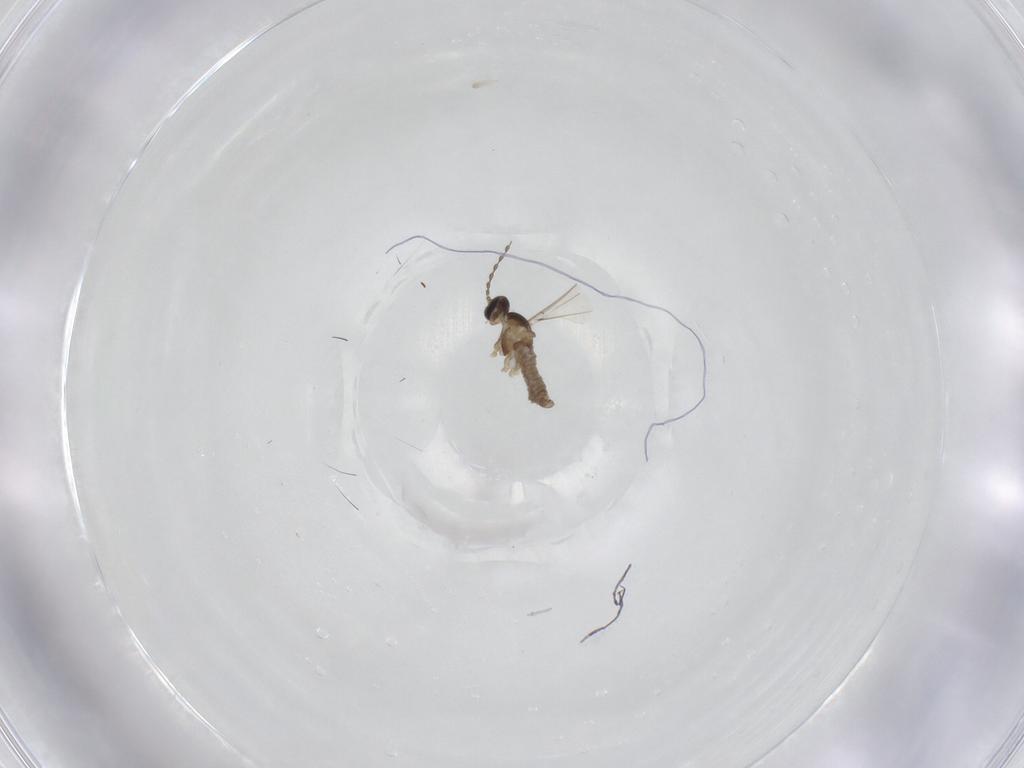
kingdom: Animalia
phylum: Arthropoda
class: Insecta
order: Diptera
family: Cecidomyiidae
